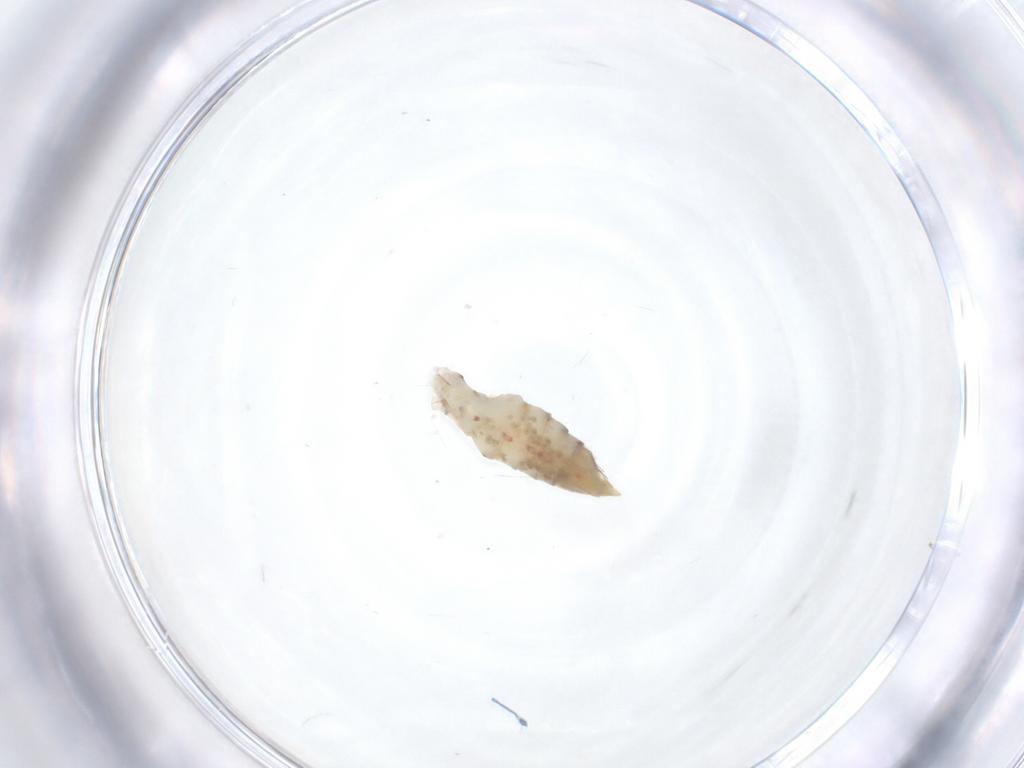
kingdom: Animalia
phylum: Arthropoda
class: Insecta
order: Lepidoptera
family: Elachistidae
